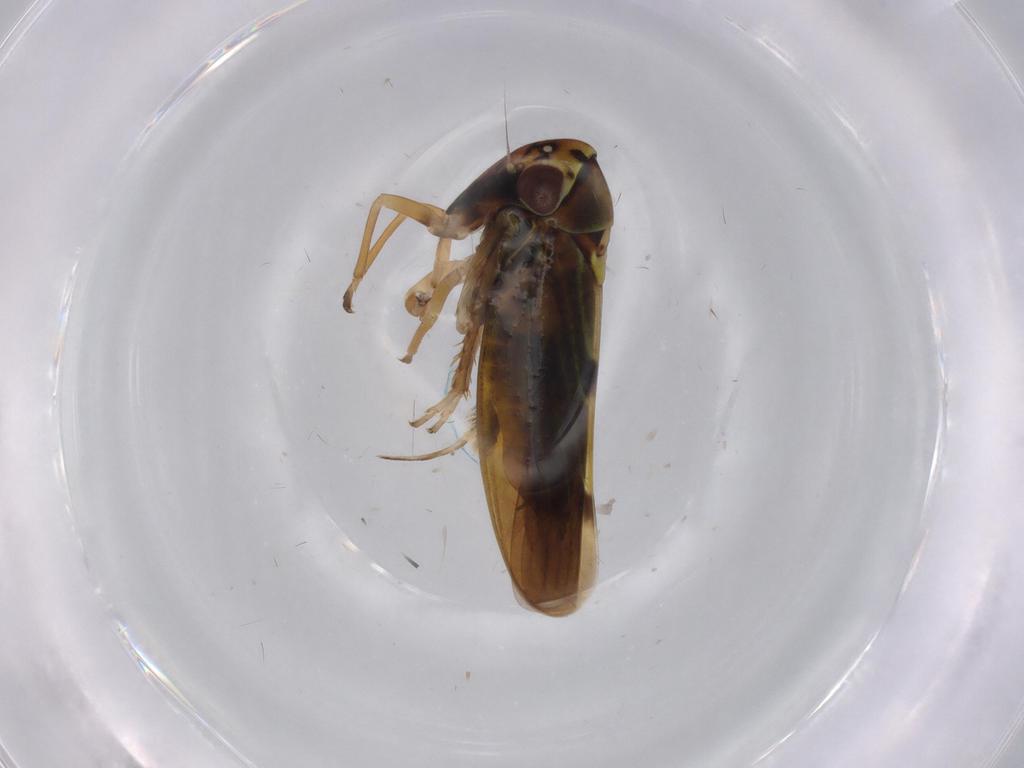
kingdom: Animalia
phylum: Arthropoda
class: Insecta
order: Hemiptera
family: Cicadellidae
